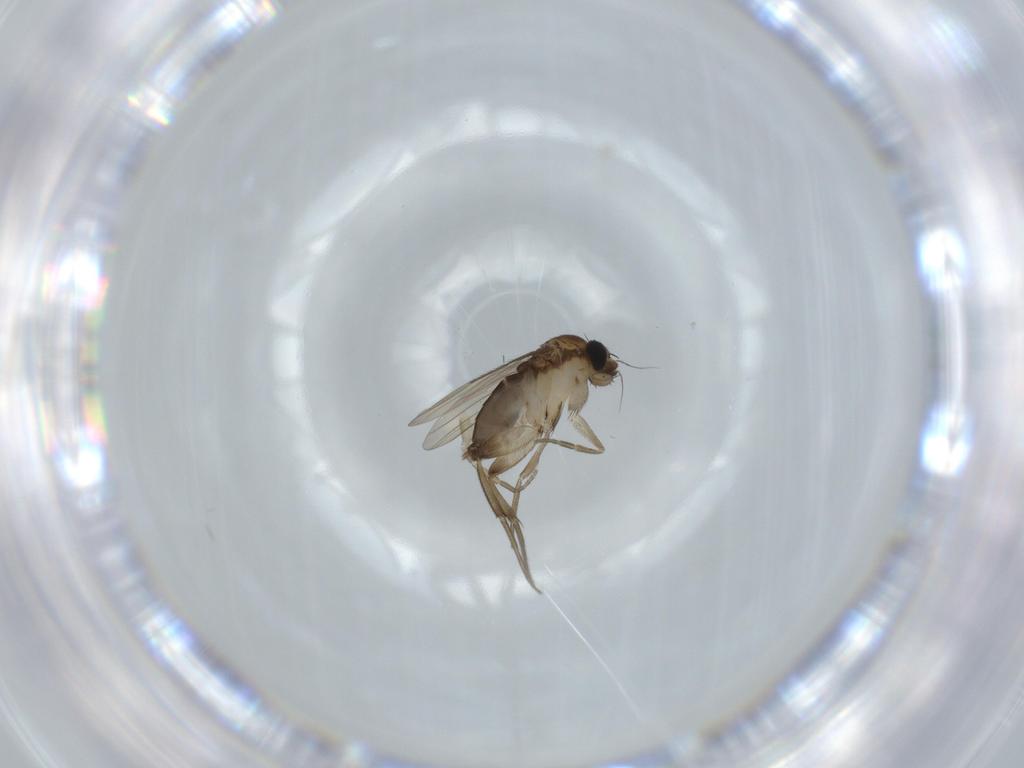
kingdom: Animalia
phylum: Arthropoda
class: Insecta
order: Diptera
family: Phoridae
